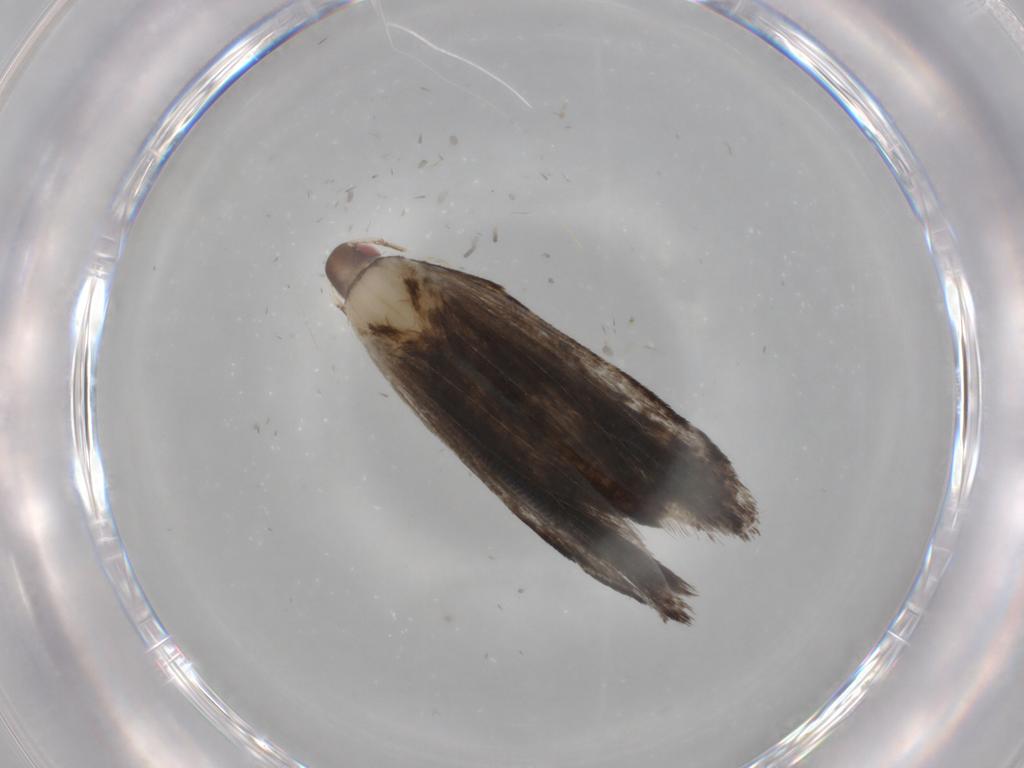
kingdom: Animalia
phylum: Arthropoda
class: Insecta
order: Lepidoptera
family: Gelechiidae
